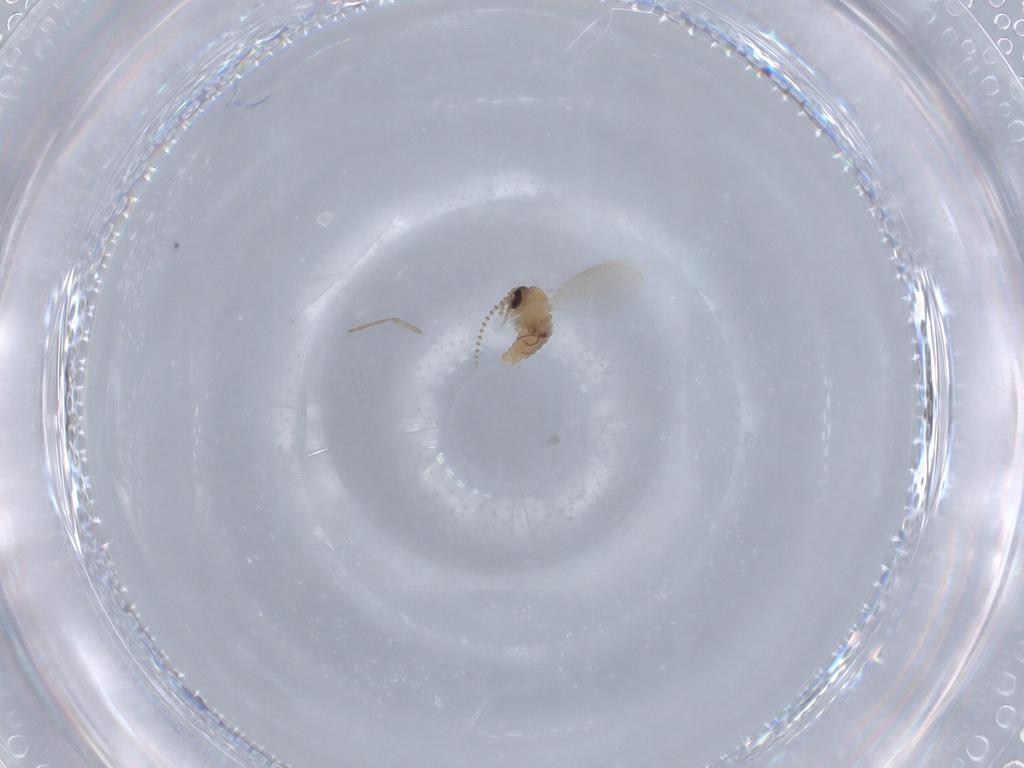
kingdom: Animalia
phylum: Arthropoda
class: Insecta
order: Diptera
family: Psychodidae
